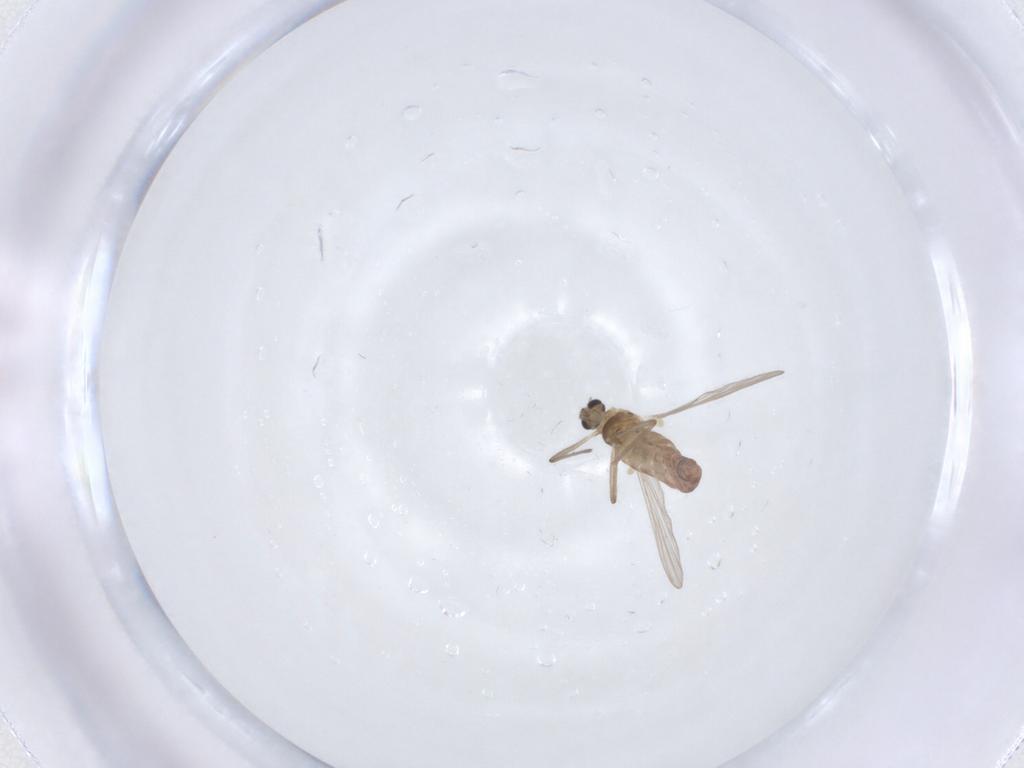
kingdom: Animalia
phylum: Arthropoda
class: Insecta
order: Diptera
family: Chironomidae
